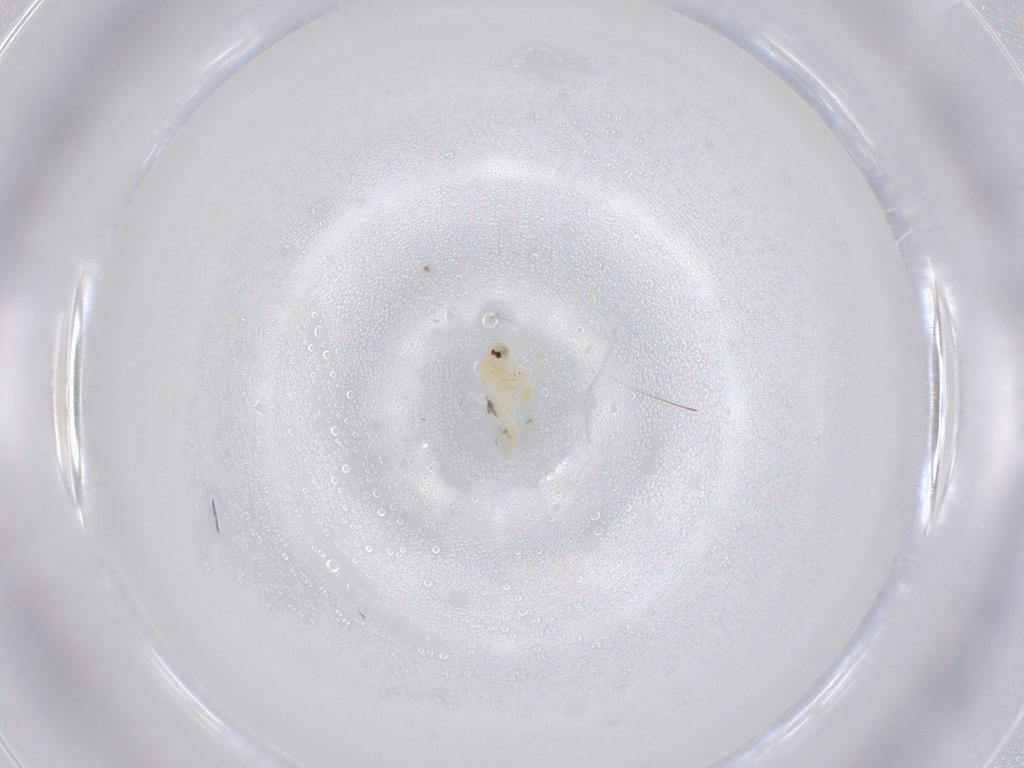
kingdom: Animalia
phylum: Arthropoda
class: Insecta
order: Hemiptera
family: Aleyrodidae
